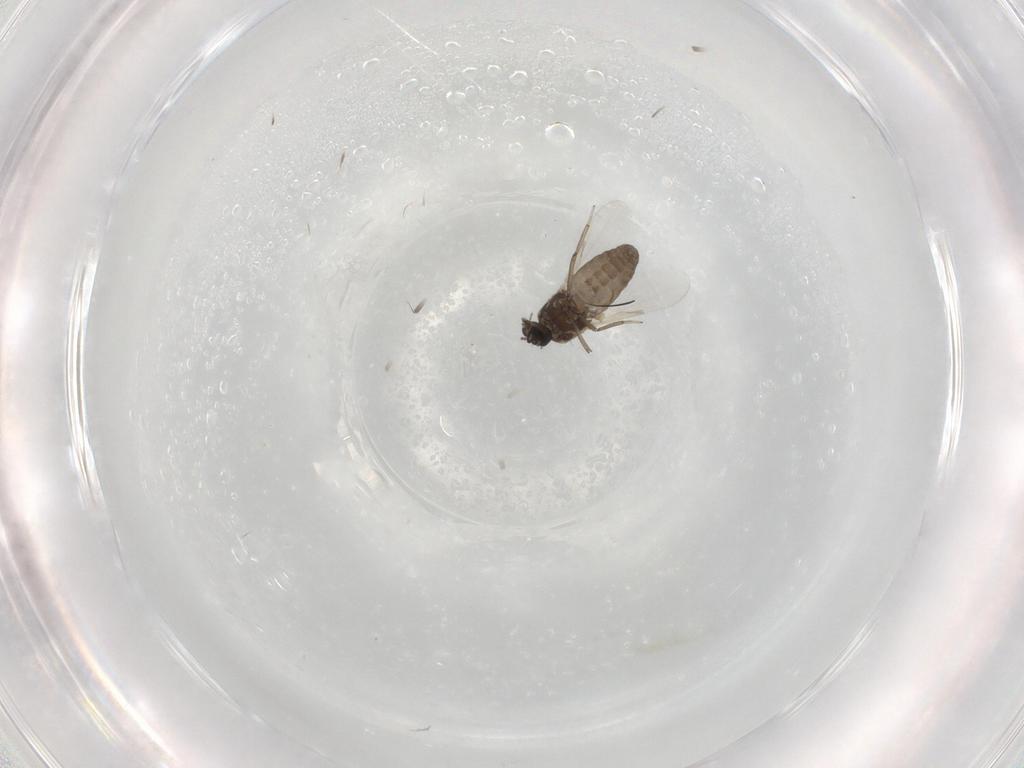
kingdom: Animalia
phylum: Arthropoda
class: Insecta
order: Diptera
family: Ceratopogonidae
